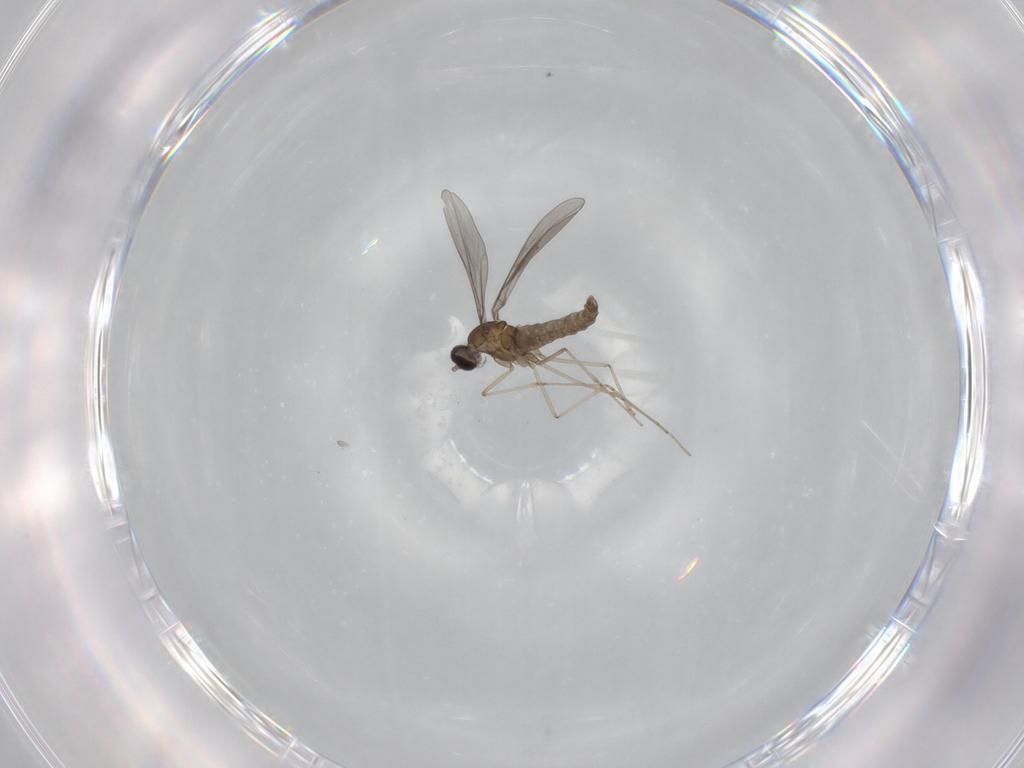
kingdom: Animalia
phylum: Arthropoda
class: Insecta
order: Diptera
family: Cecidomyiidae
